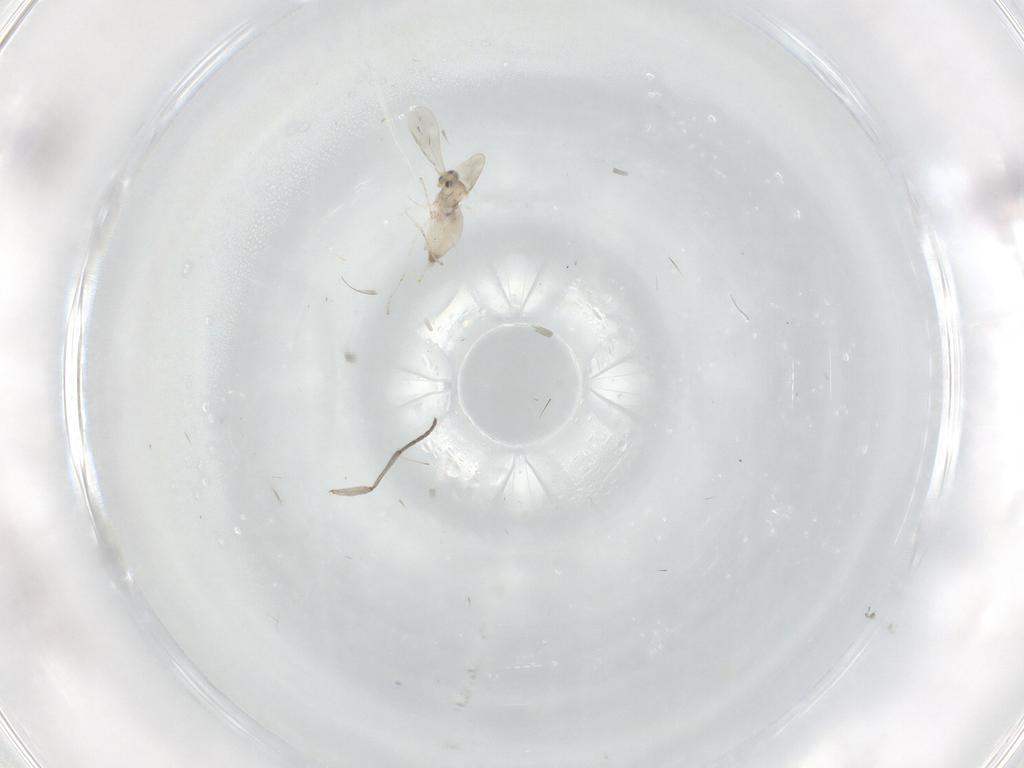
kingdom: Animalia
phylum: Arthropoda
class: Insecta
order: Diptera
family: Cecidomyiidae
